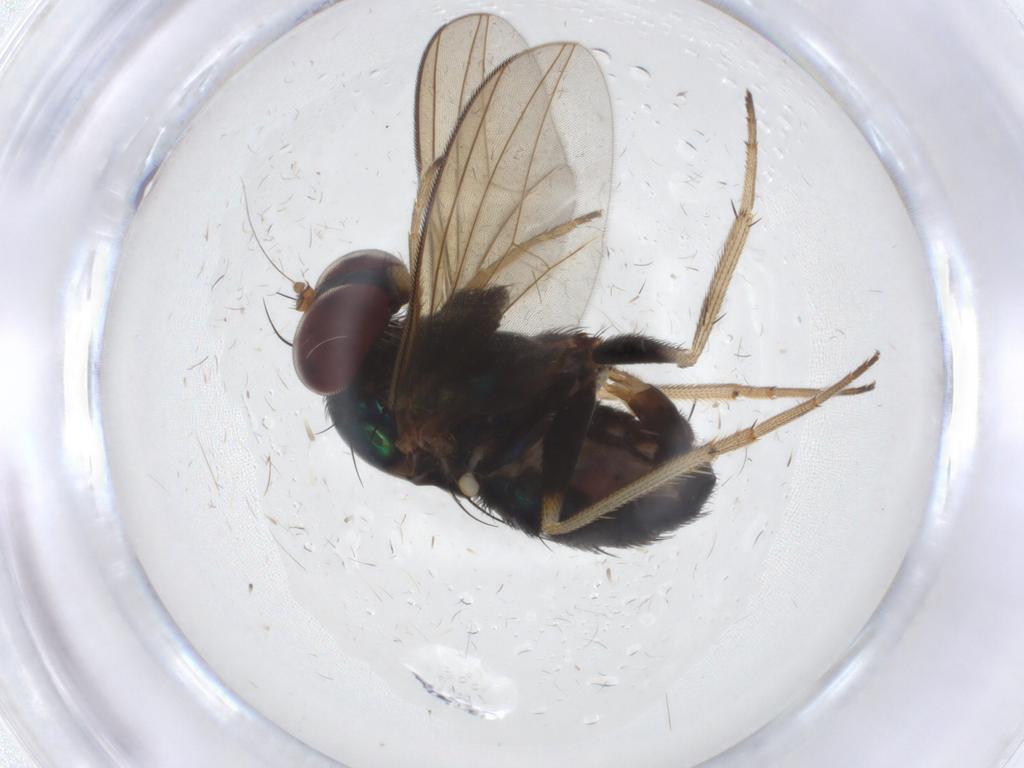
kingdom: Animalia
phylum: Arthropoda
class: Insecta
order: Diptera
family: Dolichopodidae
